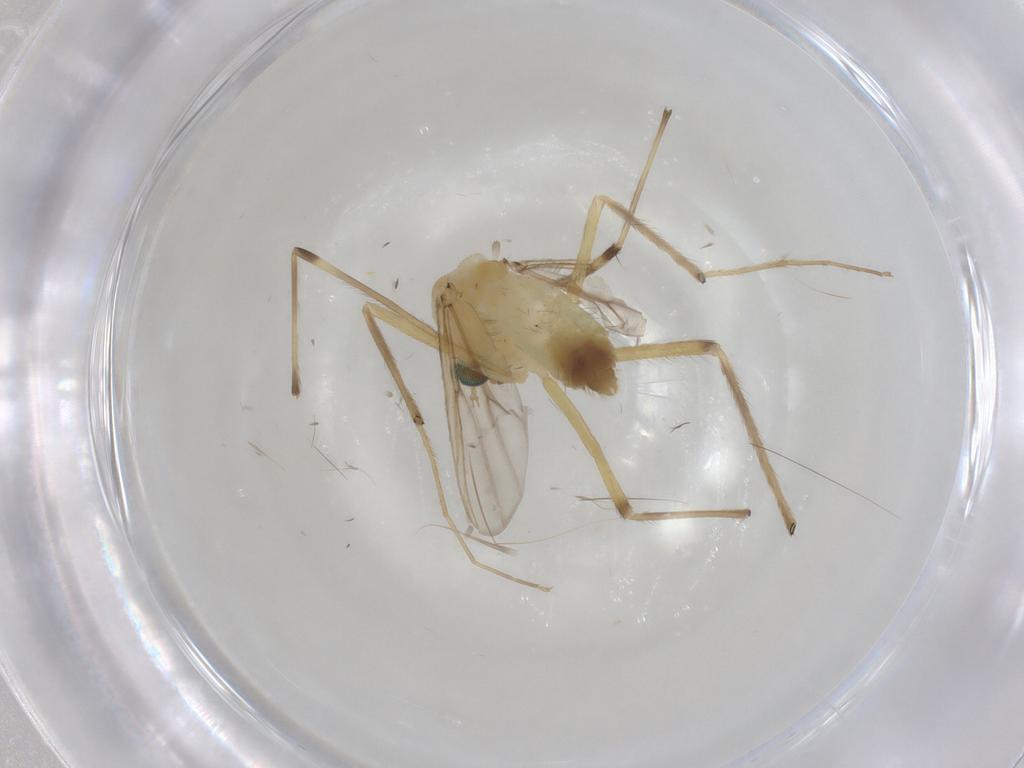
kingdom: Animalia
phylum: Arthropoda
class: Insecta
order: Diptera
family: Chironomidae
